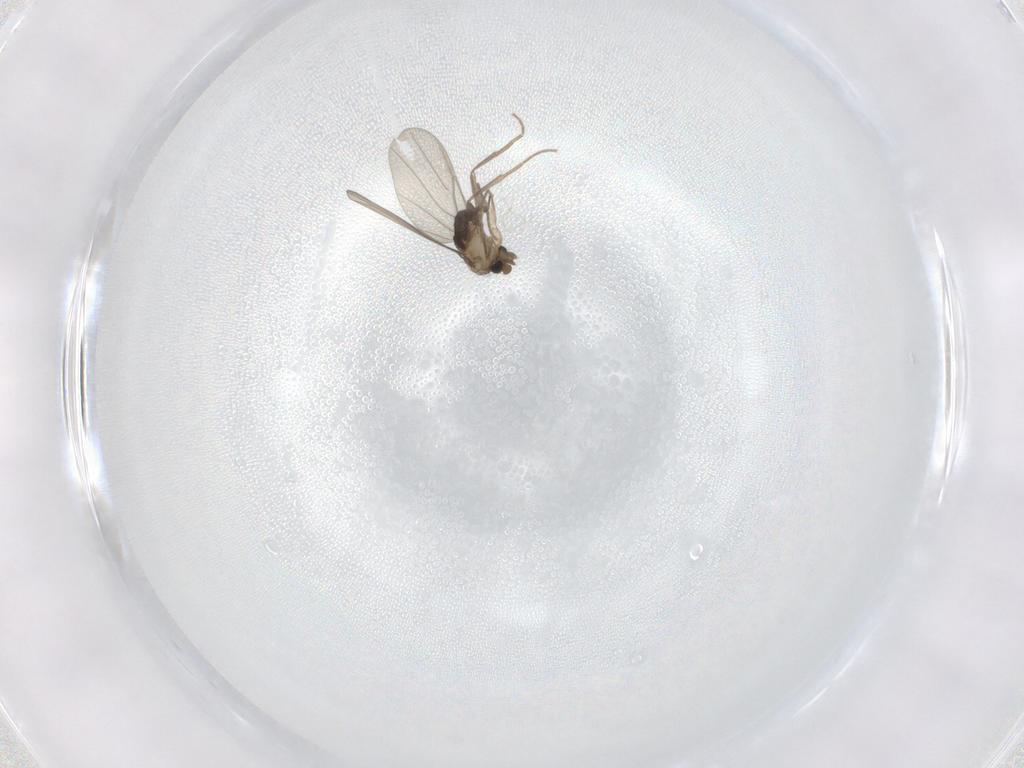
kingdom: Animalia
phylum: Arthropoda
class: Insecta
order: Diptera
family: Phoridae
